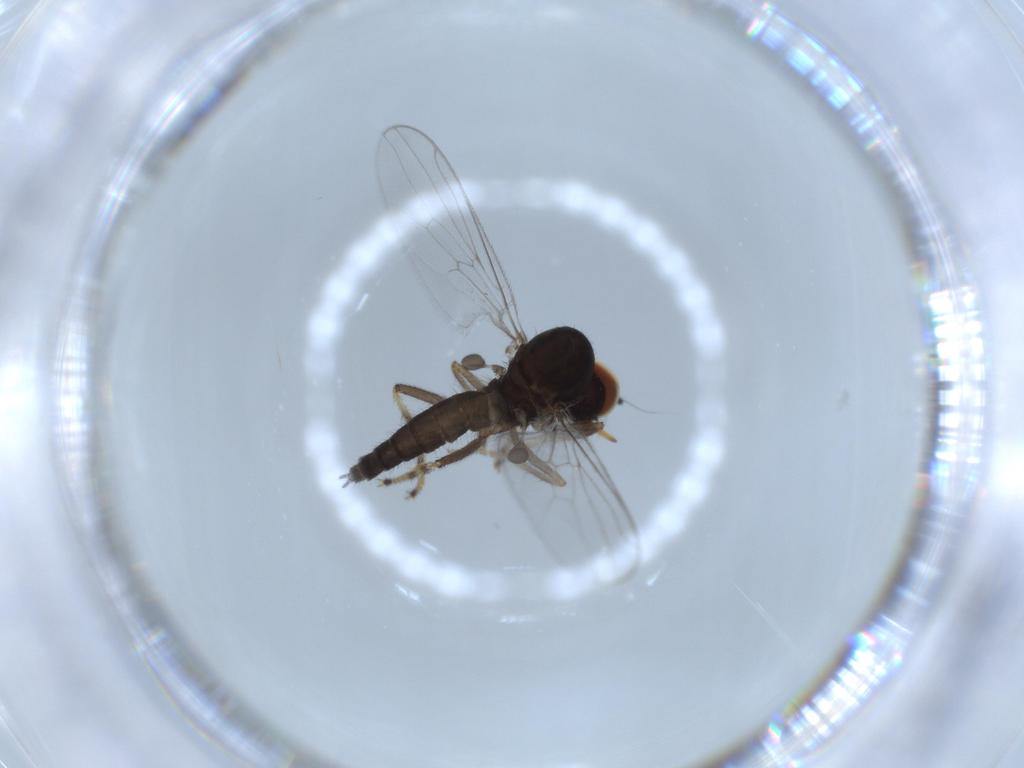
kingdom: Animalia
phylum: Arthropoda
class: Insecta
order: Diptera
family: Hybotidae
